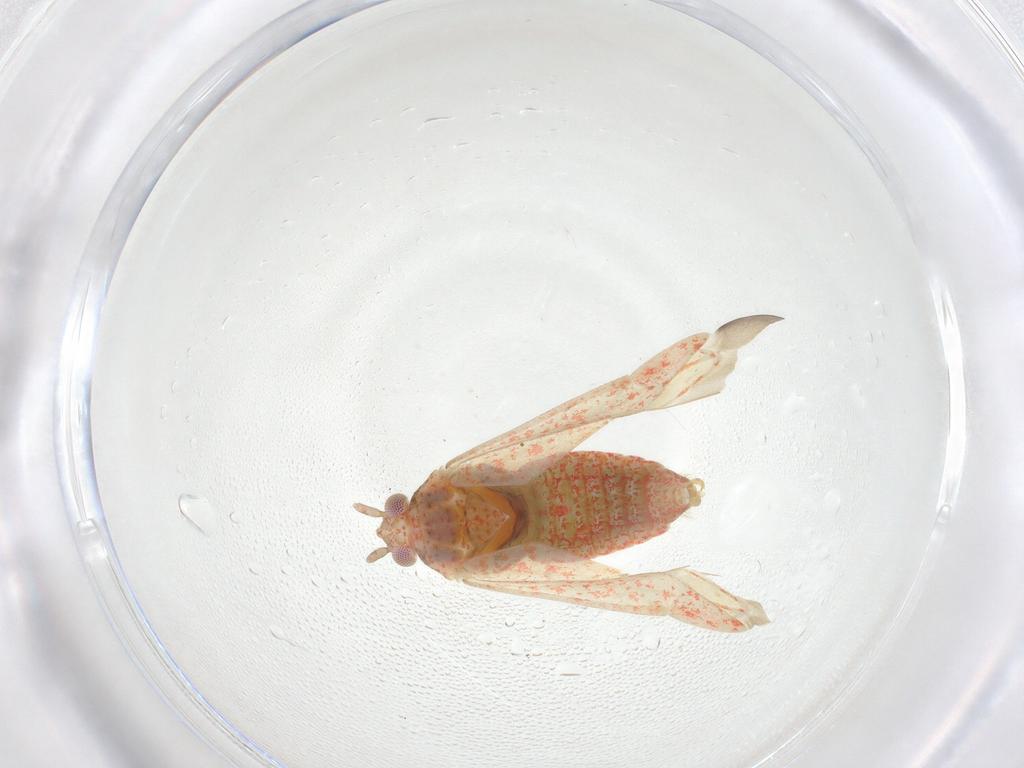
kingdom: Animalia
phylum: Arthropoda
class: Insecta
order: Hemiptera
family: Miridae
